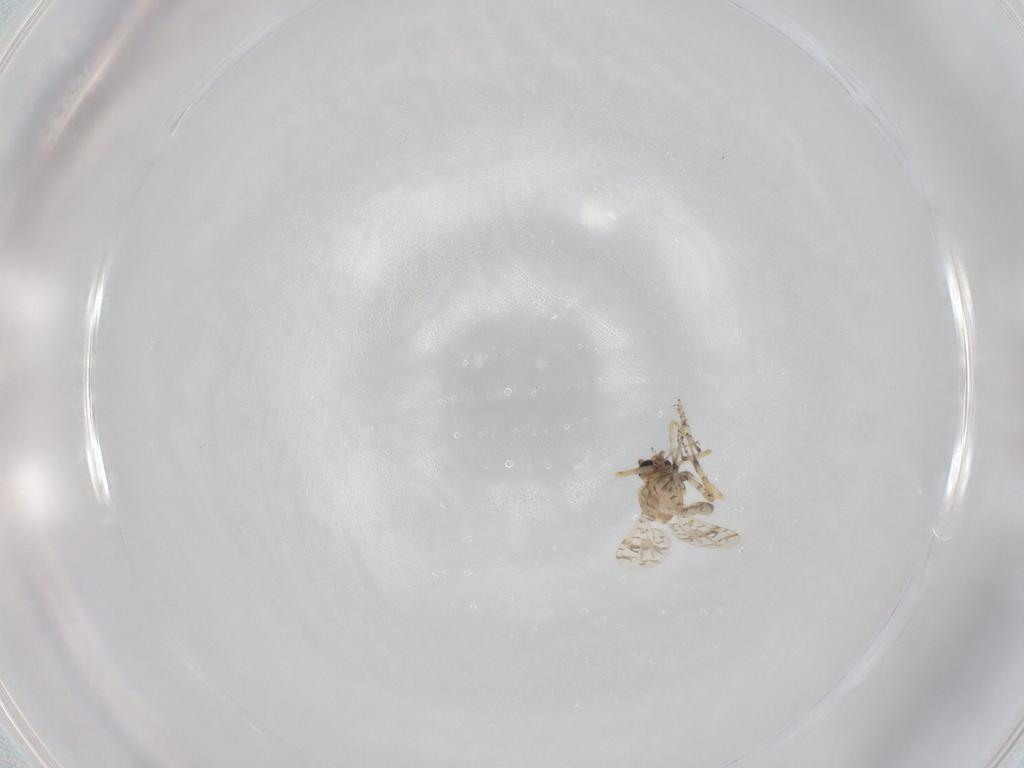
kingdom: Animalia
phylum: Arthropoda
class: Insecta
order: Diptera
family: Ceratopogonidae
